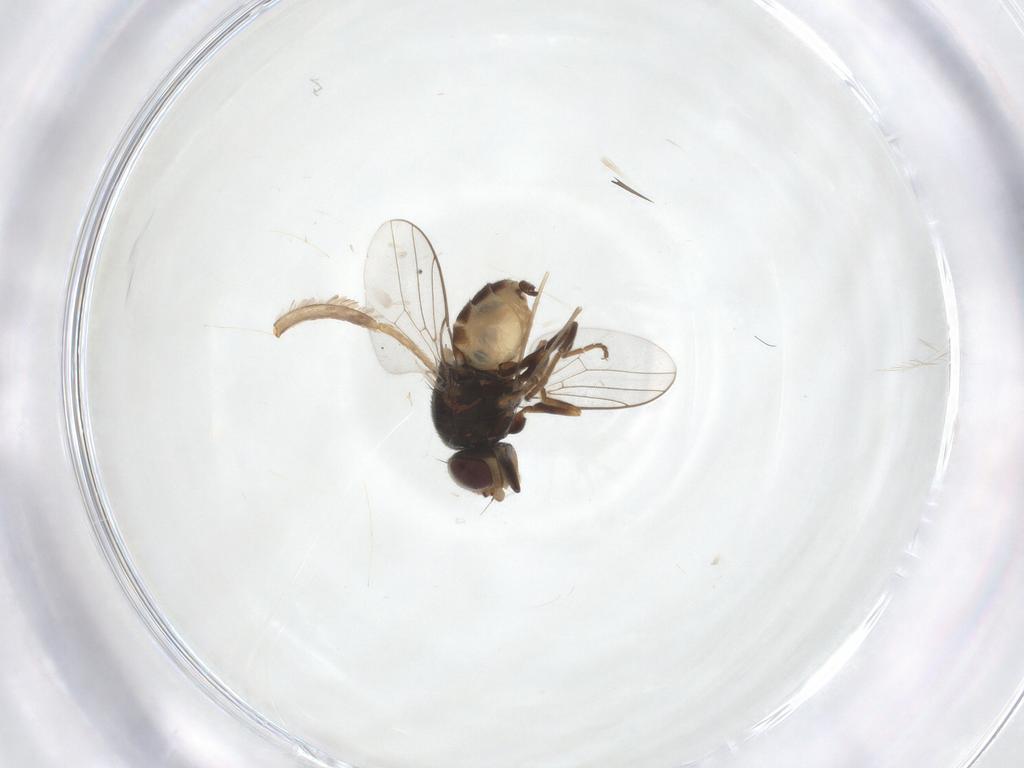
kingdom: Animalia
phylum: Arthropoda
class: Insecta
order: Diptera
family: Chloropidae
